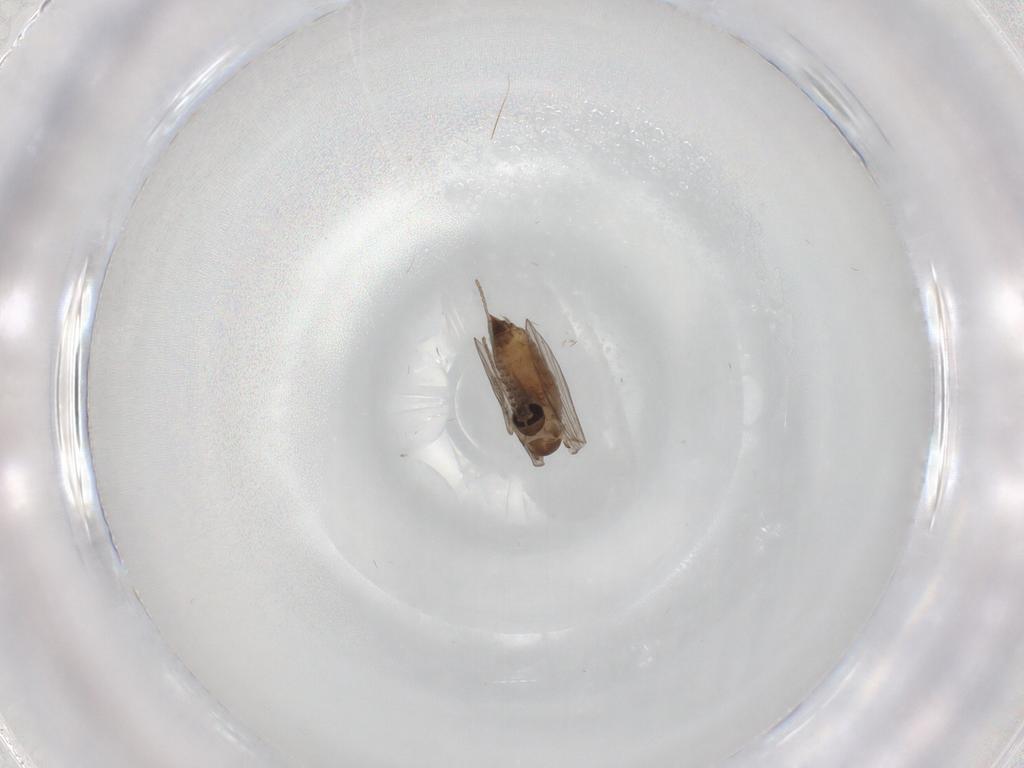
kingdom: Animalia
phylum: Arthropoda
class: Insecta
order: Diptera
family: Psychodidae
